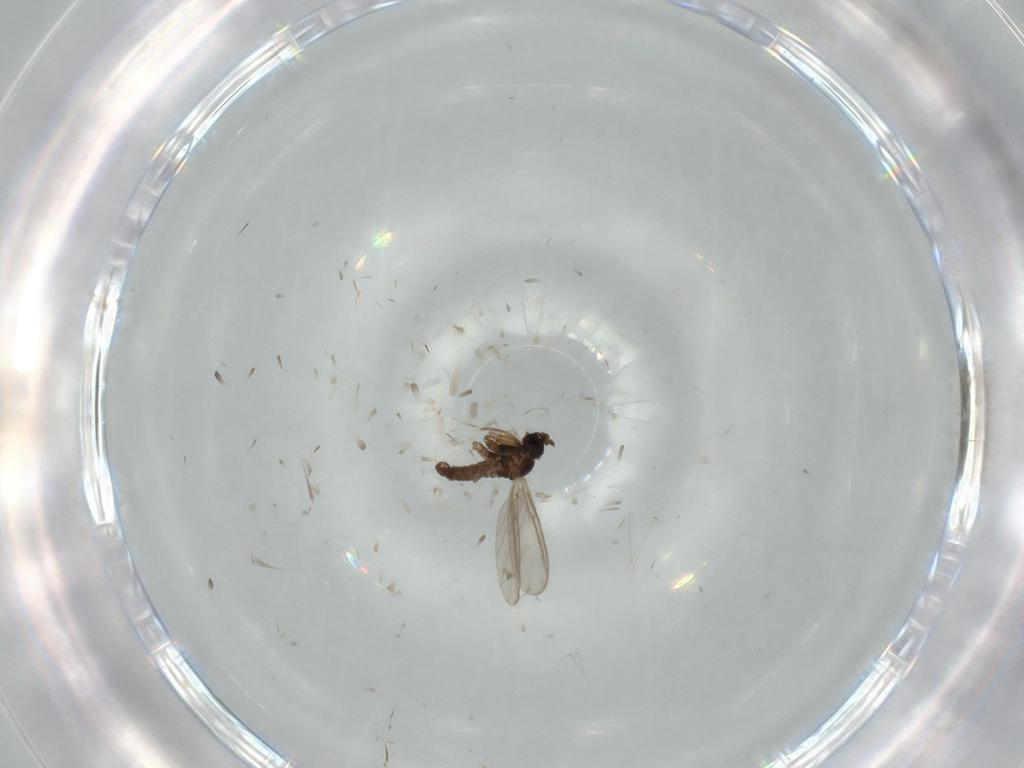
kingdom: Animalia
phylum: Arthropoda
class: Insecta
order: Diptera
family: Sciaridae
